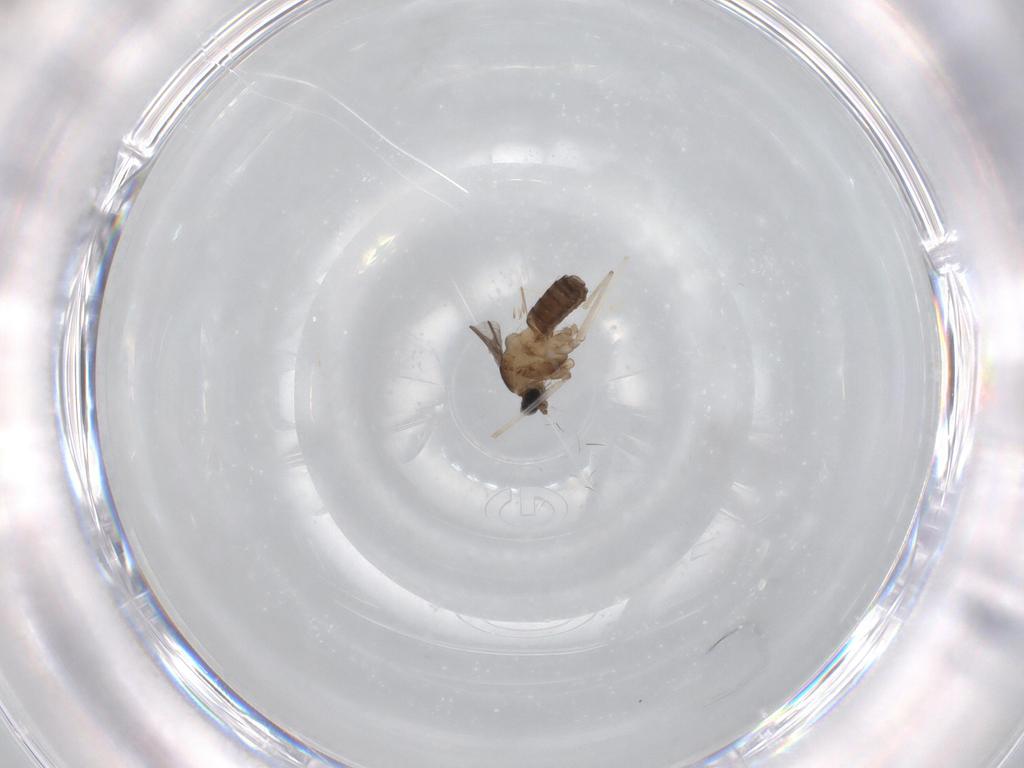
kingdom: Animalia
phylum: Arthropoda
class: Insecta
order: Diptera
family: Cecidomyiidae
